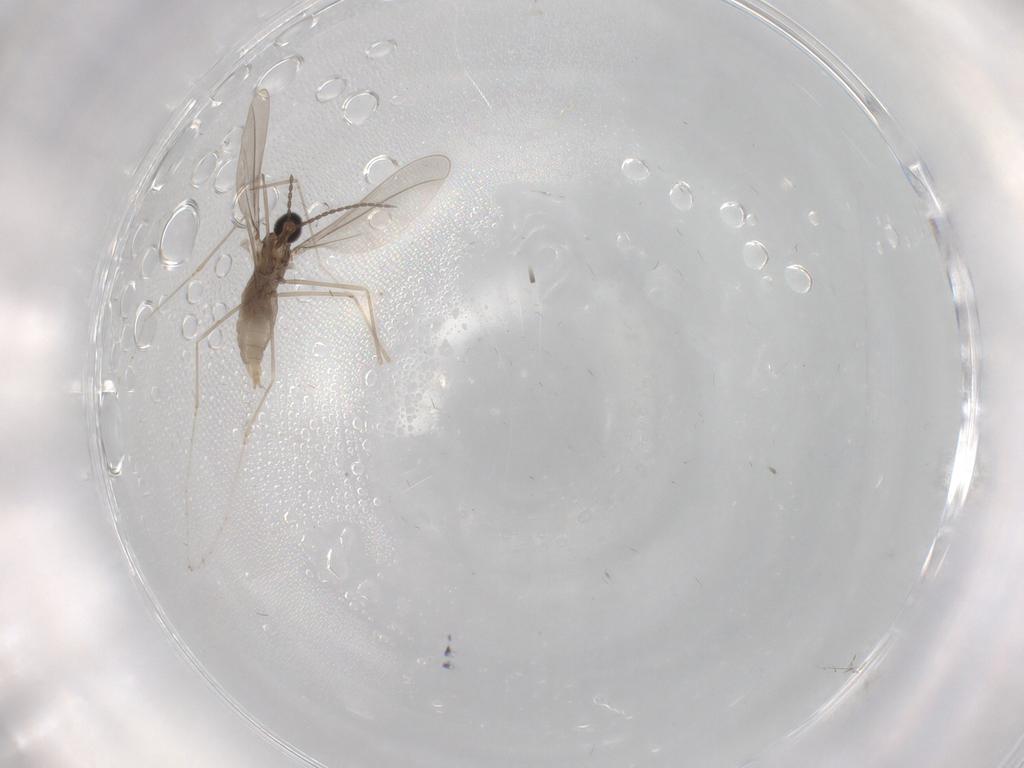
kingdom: Animalia
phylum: Arthropoda
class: Insecta
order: Diptera
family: Cecidomyiidae
